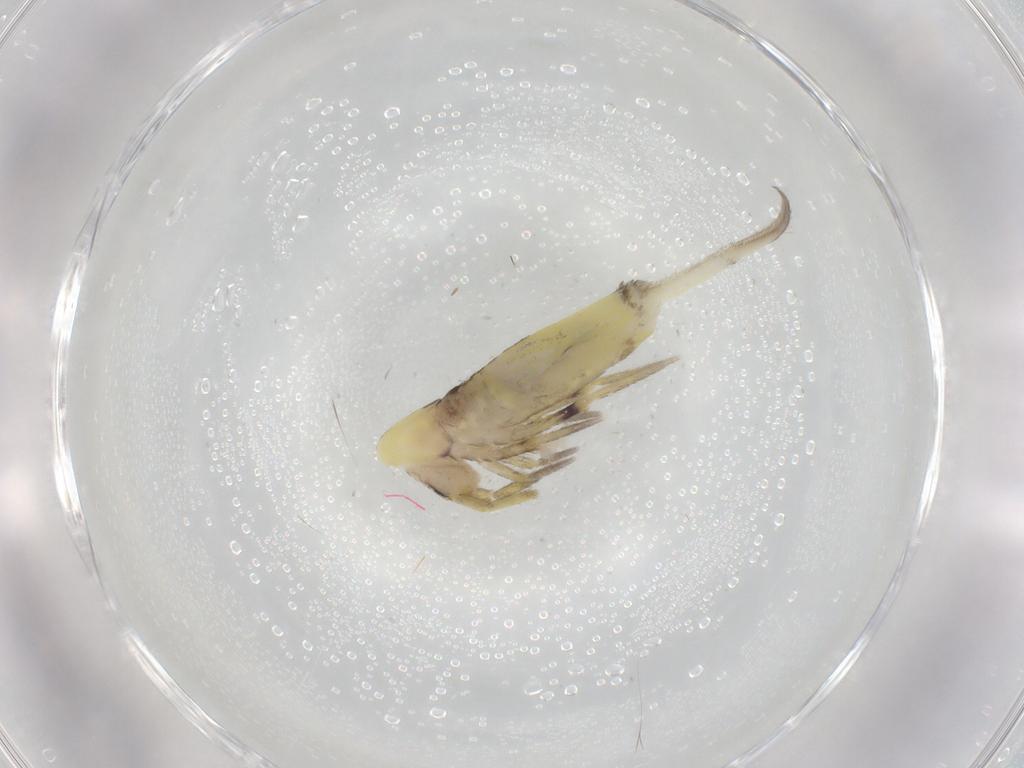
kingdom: Animalia
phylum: Arthropoda
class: Collembola
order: Entomobryomorpha
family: Entomobryidae
